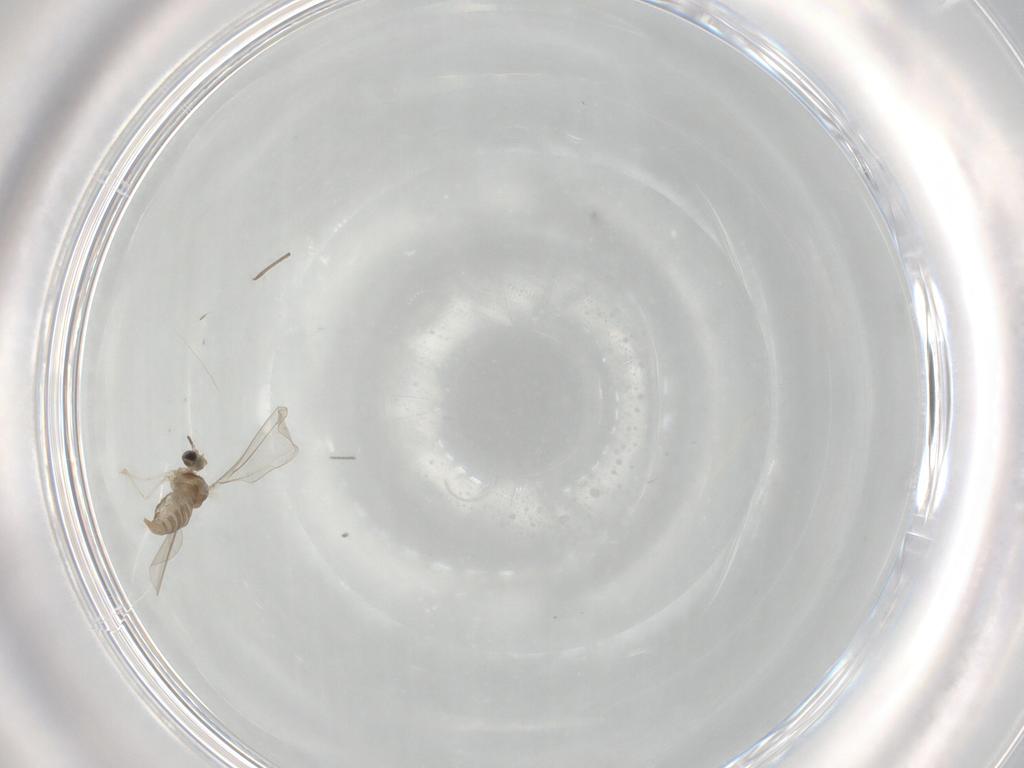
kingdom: Animalia
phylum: Arthropoda
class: Insecta
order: Diptera
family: Cecidomyiidae
